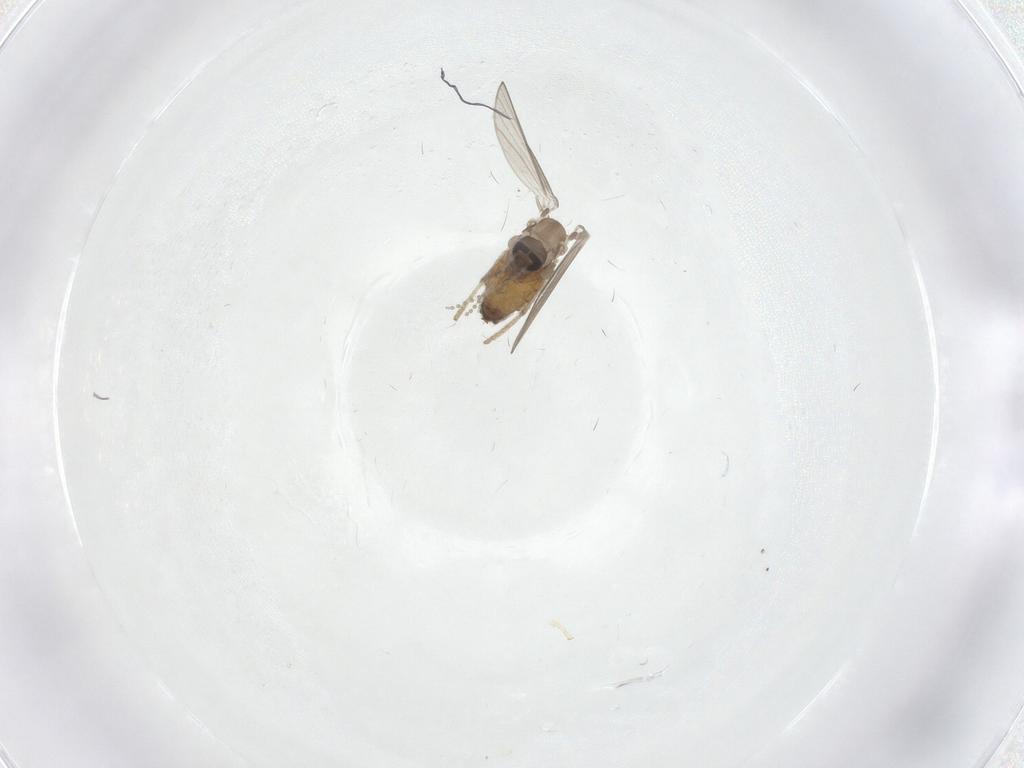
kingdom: Animalia
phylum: Arthropoda
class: Insecta
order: Diptera
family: Psychodidae
